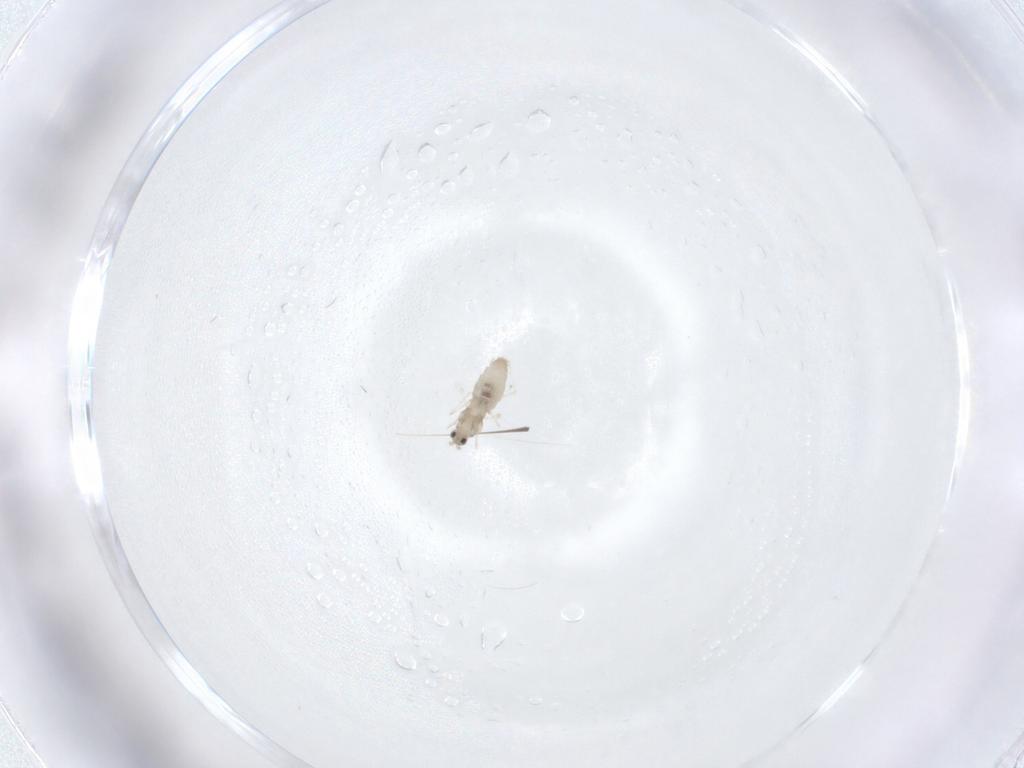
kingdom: Animalia
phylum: Arthropoda
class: Insecta
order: Diptera
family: Cecidomyiidae
